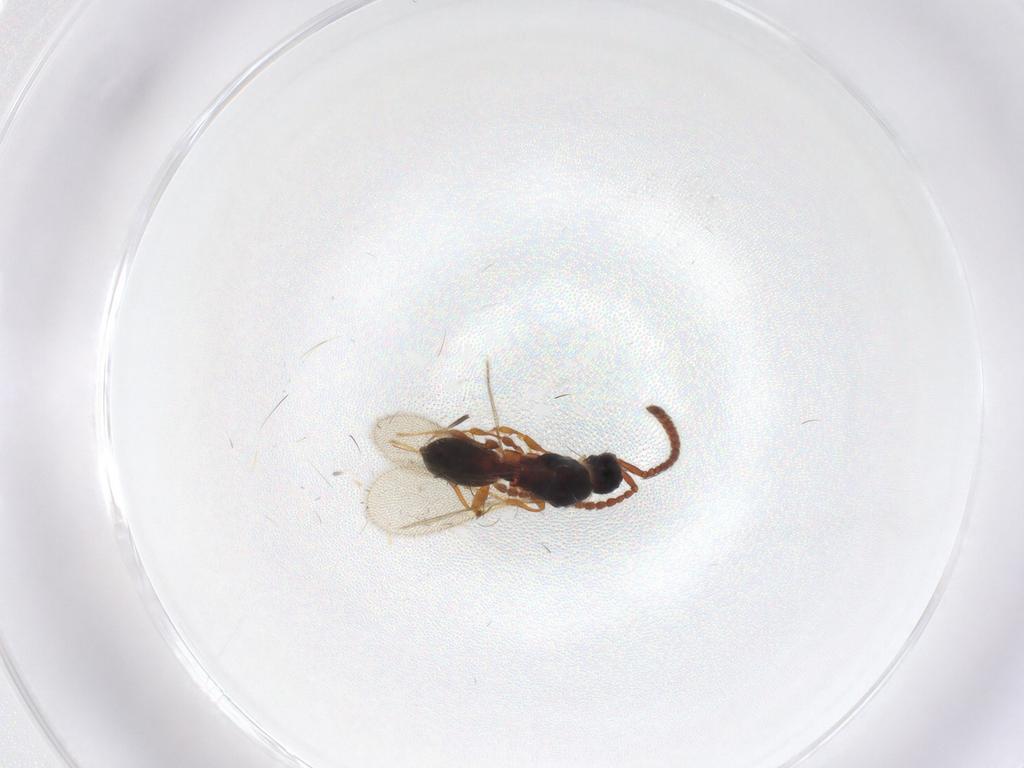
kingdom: Animalia
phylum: Arthropoda
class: Insecta
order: Hymenoptera
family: Diapriidae
